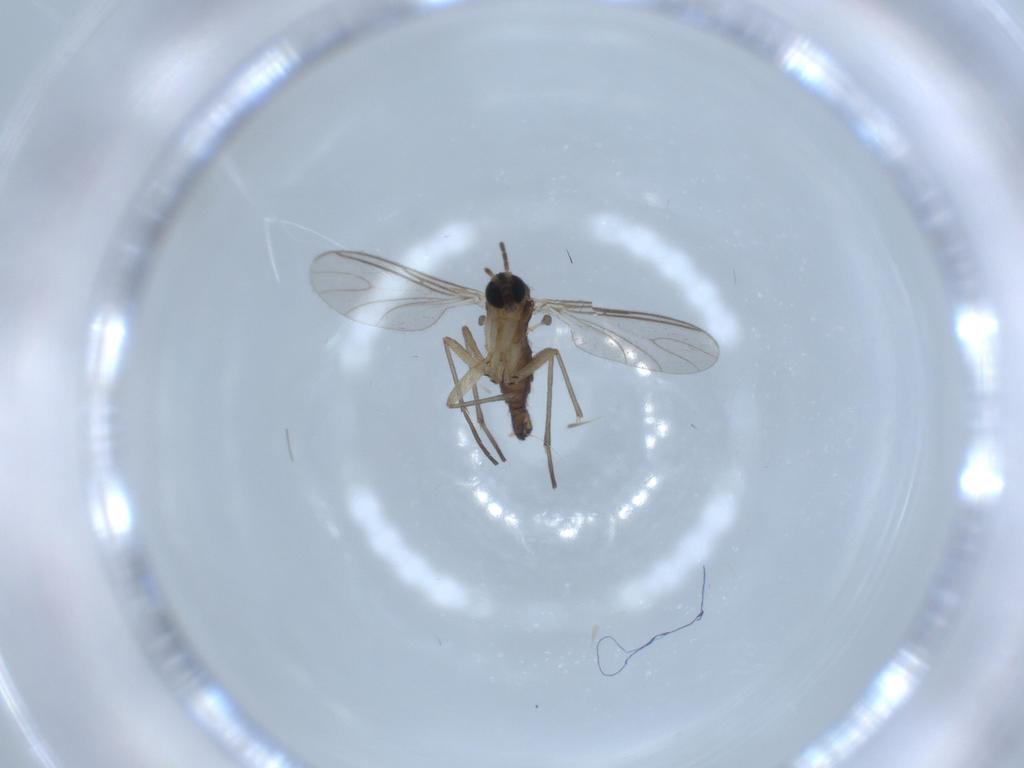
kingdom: Animalia
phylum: Arthropoda
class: Insecta
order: Diptera
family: Sciaridae
